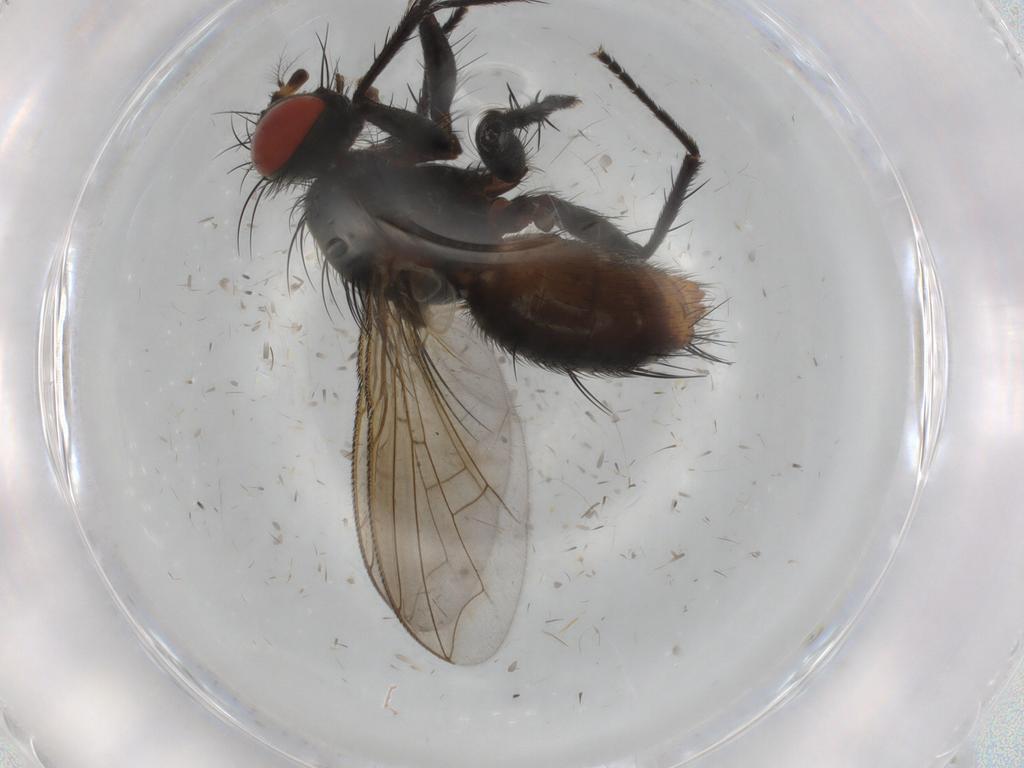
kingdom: Animalia
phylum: Arthropoda
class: Insecta
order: Diptera
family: Sarcophagidae
